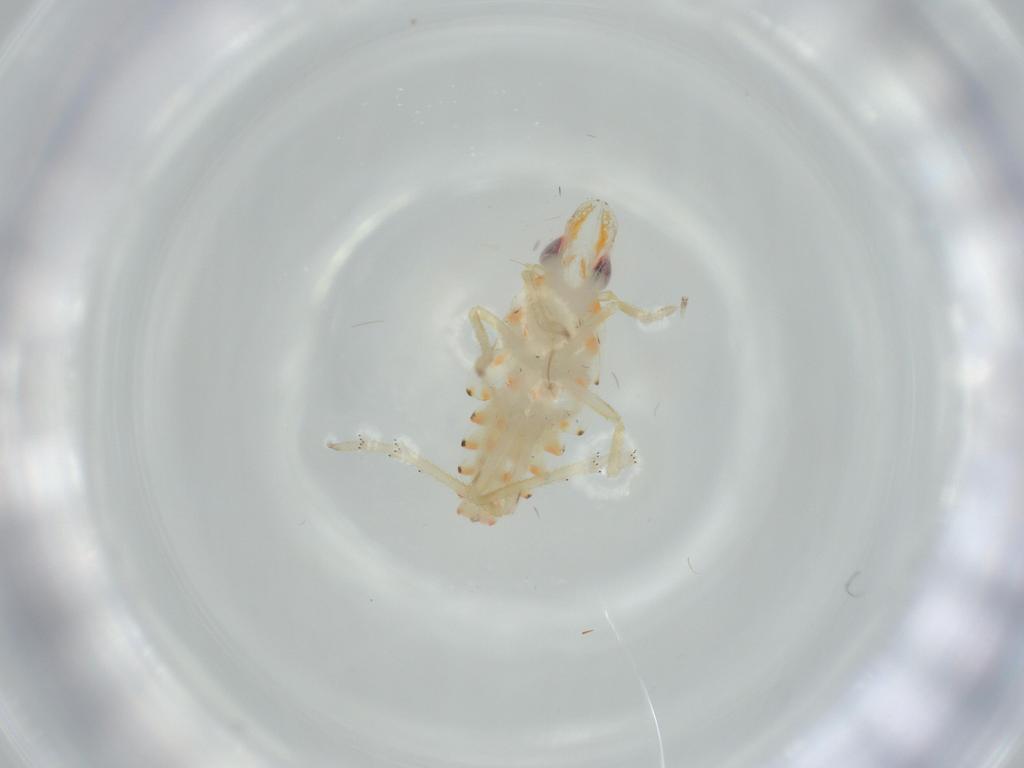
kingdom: Animalia
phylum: Arthropoda
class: Insecta
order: Hemiptera
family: Tropiduchidae
